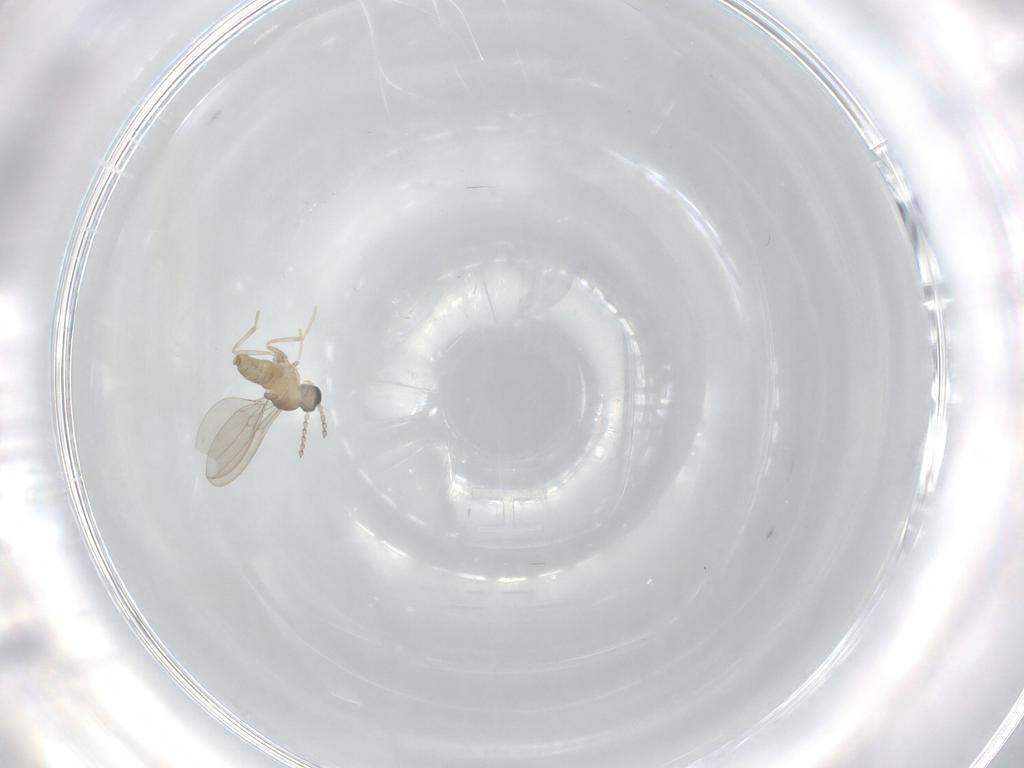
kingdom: Animalia
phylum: Arthropoda
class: Insecta
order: Diptera
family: Cecidomyiidae
